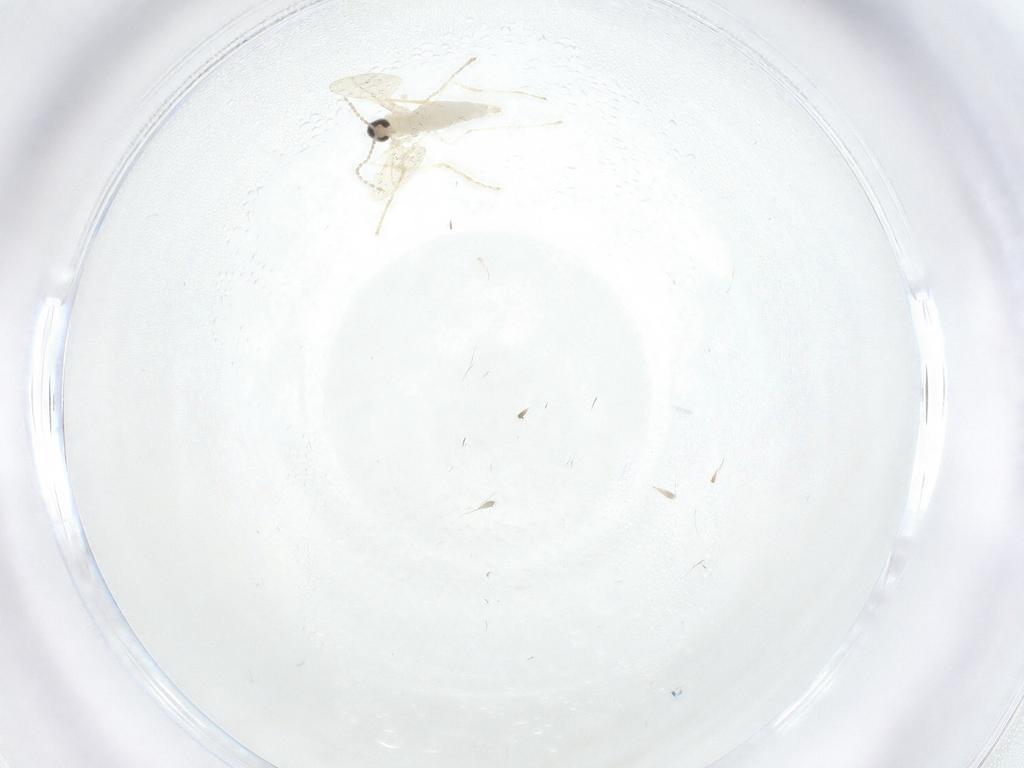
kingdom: Animalia
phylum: Arthropoda
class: Insecta
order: Diptera
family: Cecidomyiidae
